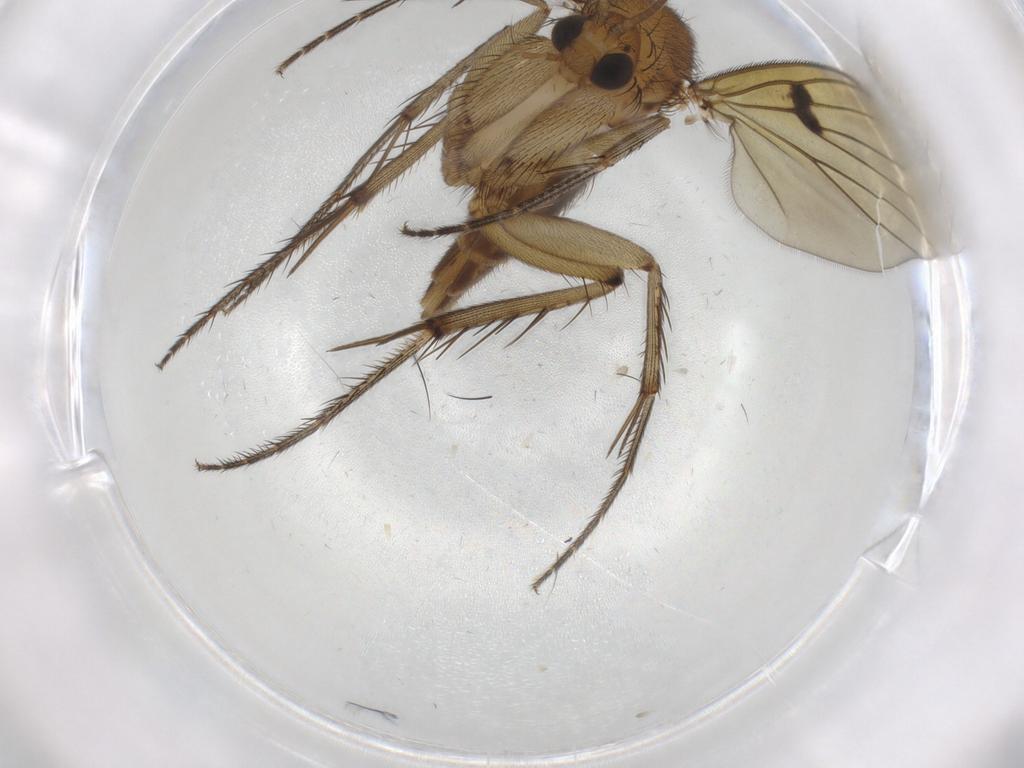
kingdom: Animalia
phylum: Arthropoda
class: Insecta
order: Diptera
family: Mycetophilidae
